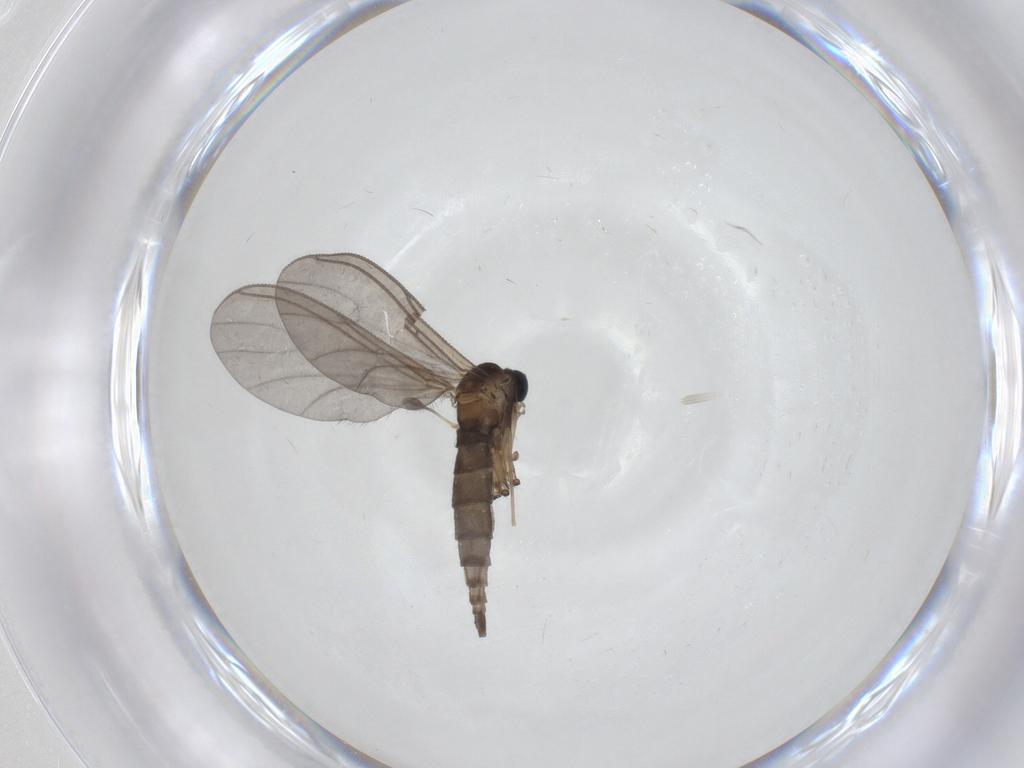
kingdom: Animalia
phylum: Arthropoda
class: Insecta
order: Diptera
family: Sciaridae
